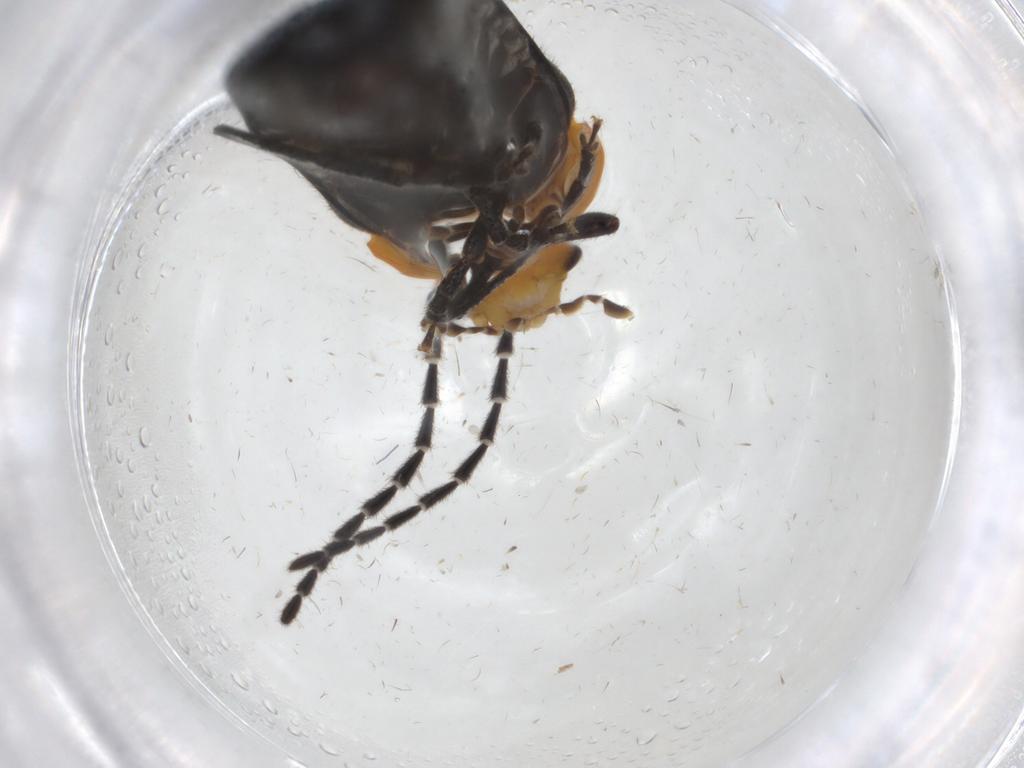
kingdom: Animalia
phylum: Arthropoda
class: Insecta
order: Coleoptera
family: Cantharidae
